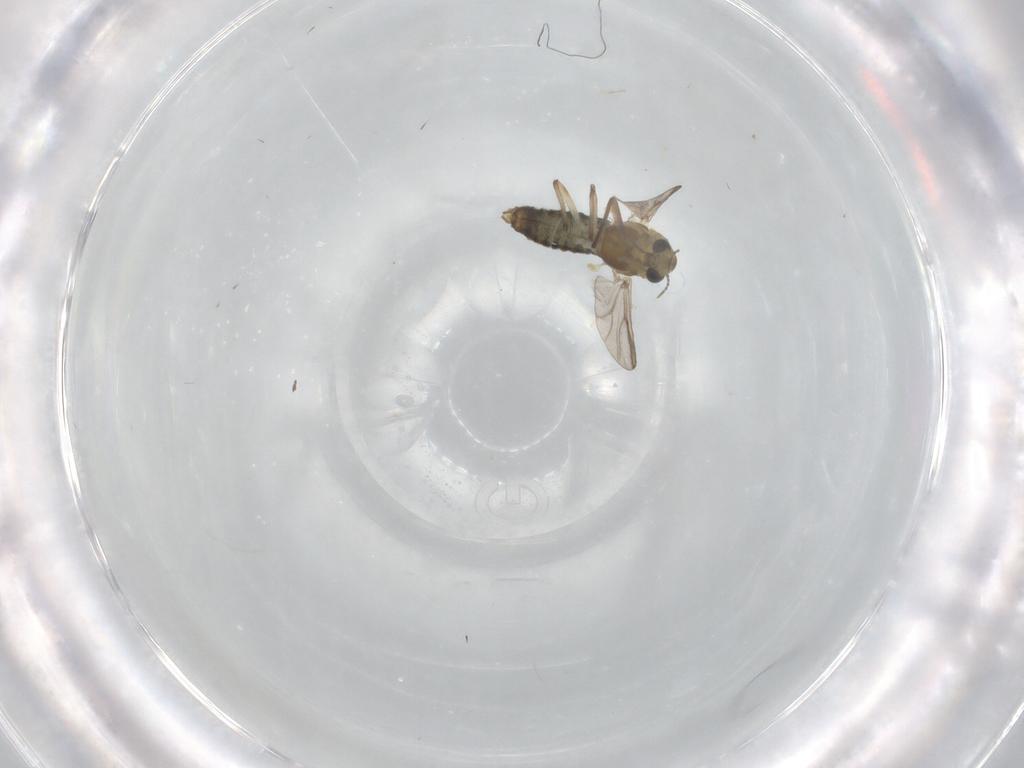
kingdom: Animalia
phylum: Arthropoda
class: Insecta
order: Diptera
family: Chironomidae
